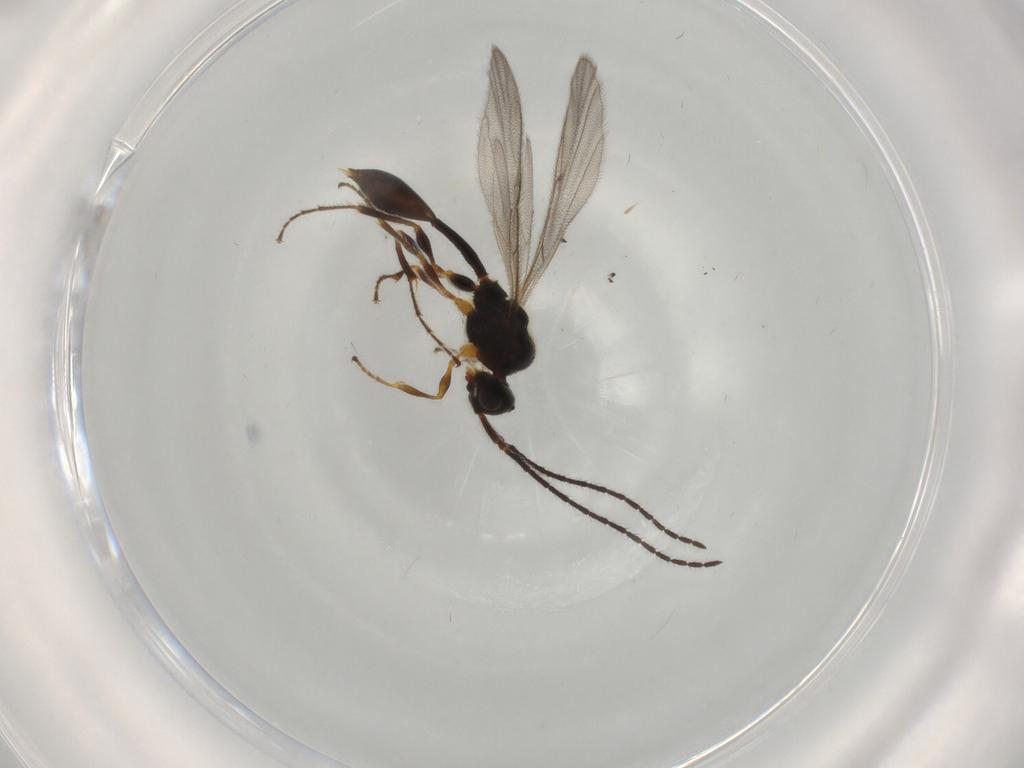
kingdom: Animalia
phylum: Arthropoda
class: Insecta
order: Hymenoptera
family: Diapriidae
